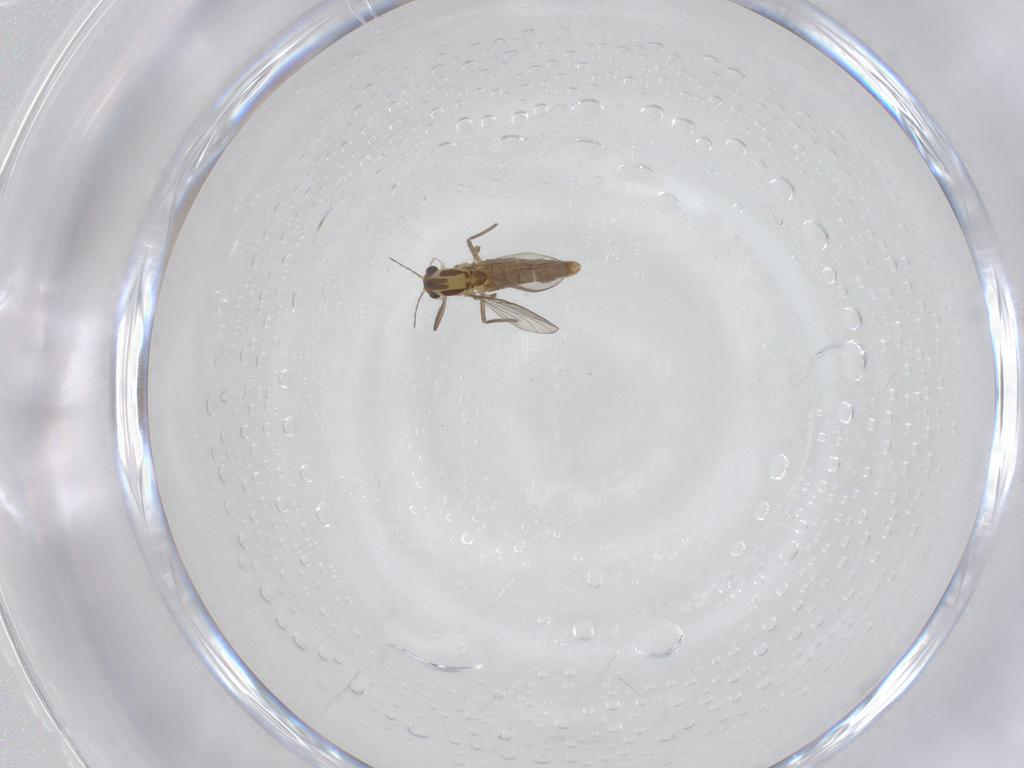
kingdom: Animalia
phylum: Arthropoda
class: Insecta
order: Diptera
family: Chironomidae
